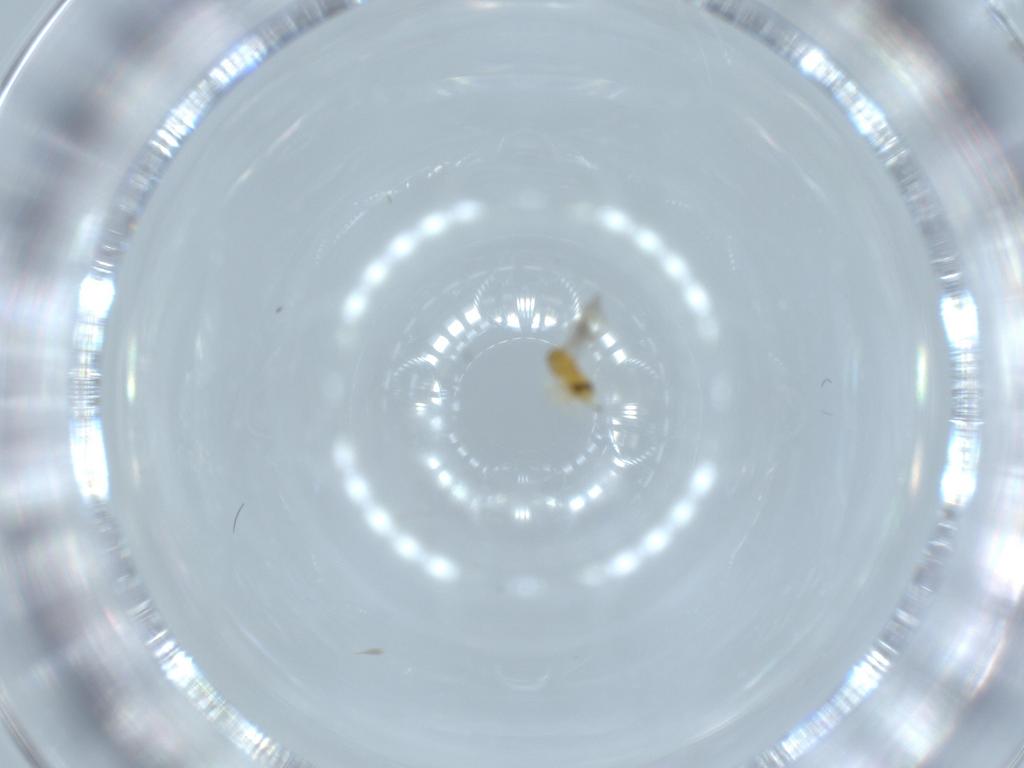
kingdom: Animalia
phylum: Arthropoda
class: Insecta
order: Hymenoptera
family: Aphelinidae
